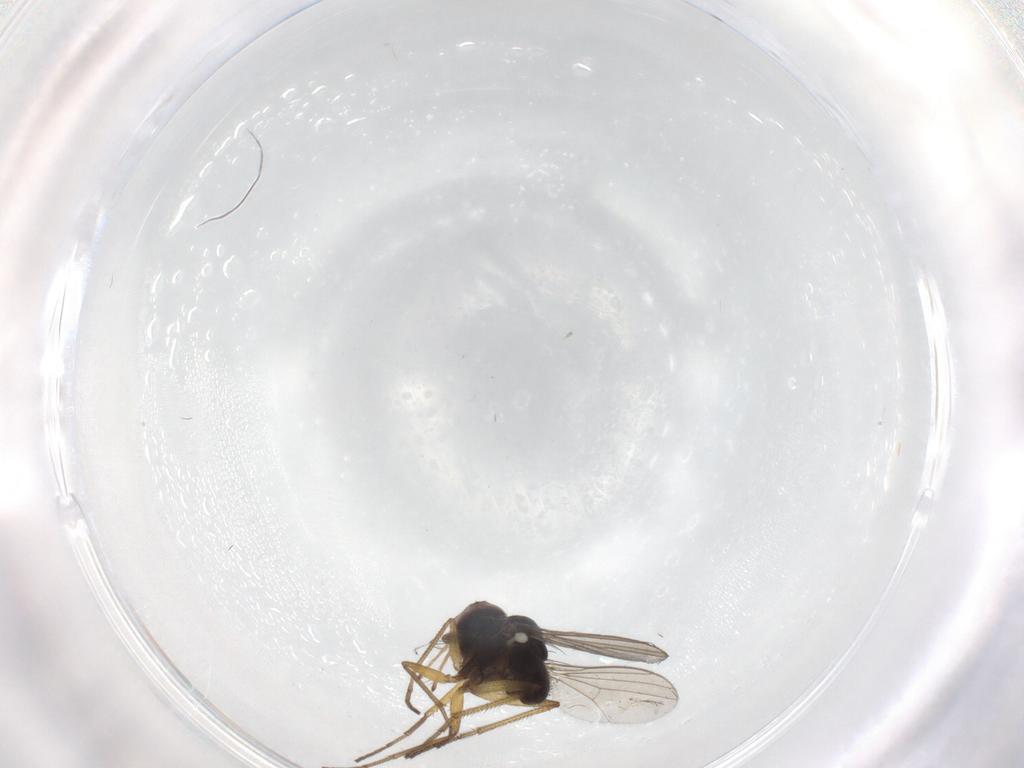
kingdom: Animalia
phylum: Arthropoda
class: Insecta
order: Diptera
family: Dolichopodidae
